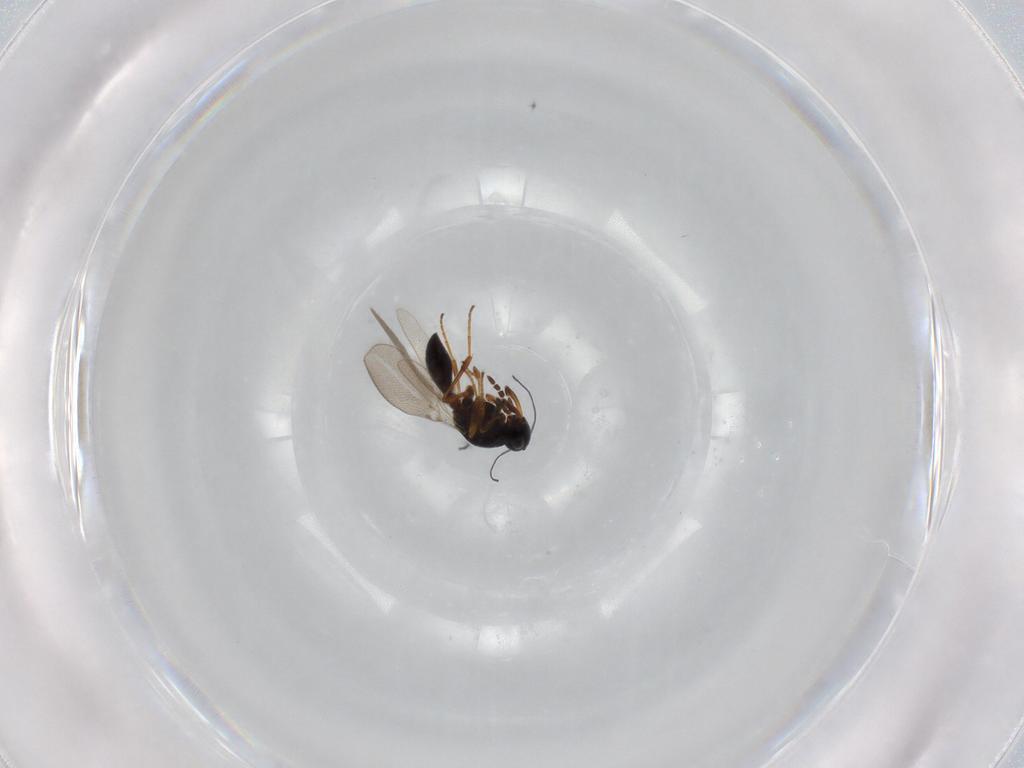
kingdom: Animalia
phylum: Arthropoda
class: Insecta
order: Hymenoptera
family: Platygastridae
